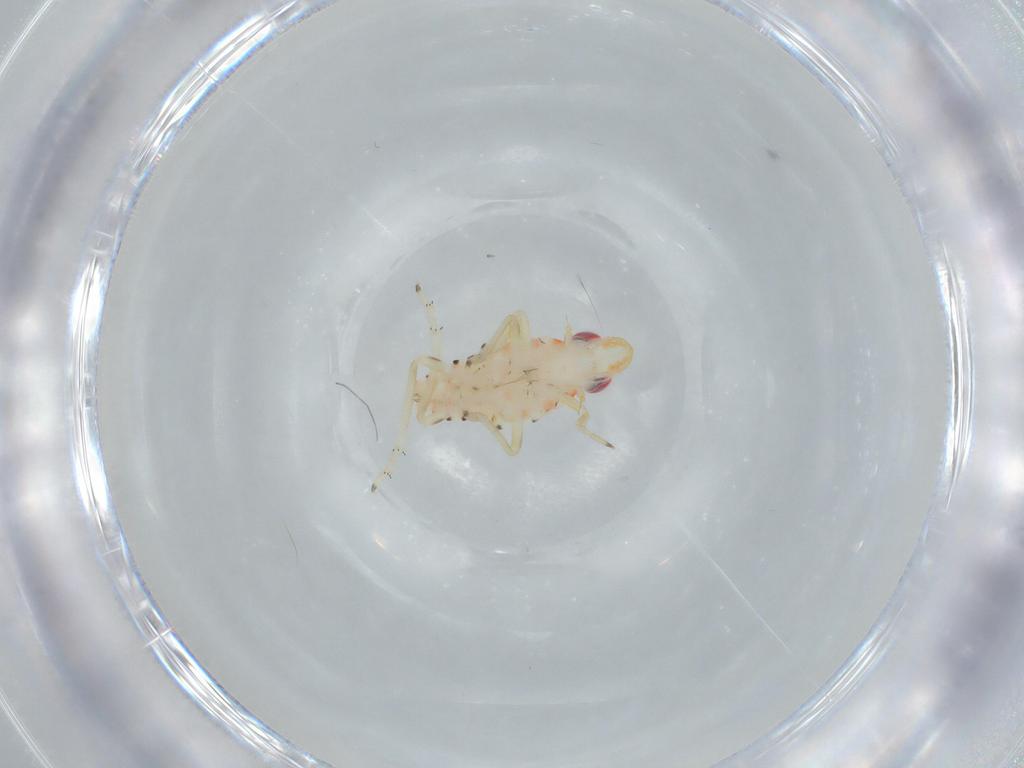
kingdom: Animalia
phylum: Arthropoda
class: Insecta
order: Hemiptera
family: Tropiduchidae
